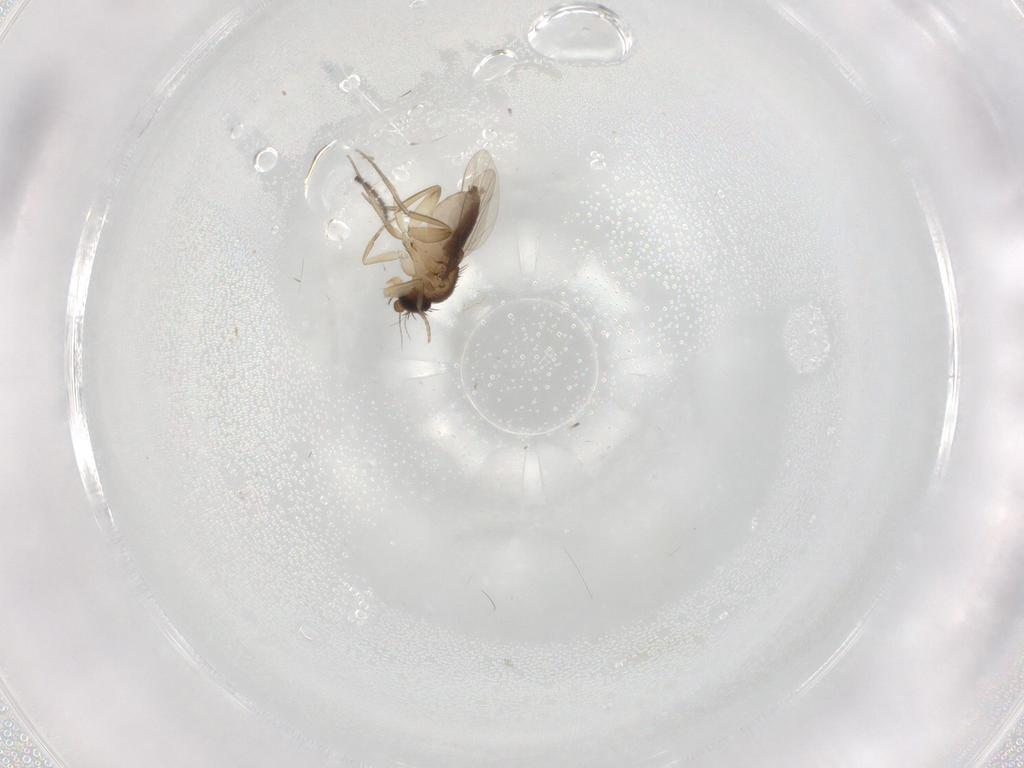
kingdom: Animalia
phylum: Arthropoda
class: Insecta
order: Diptera
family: Phoridae
